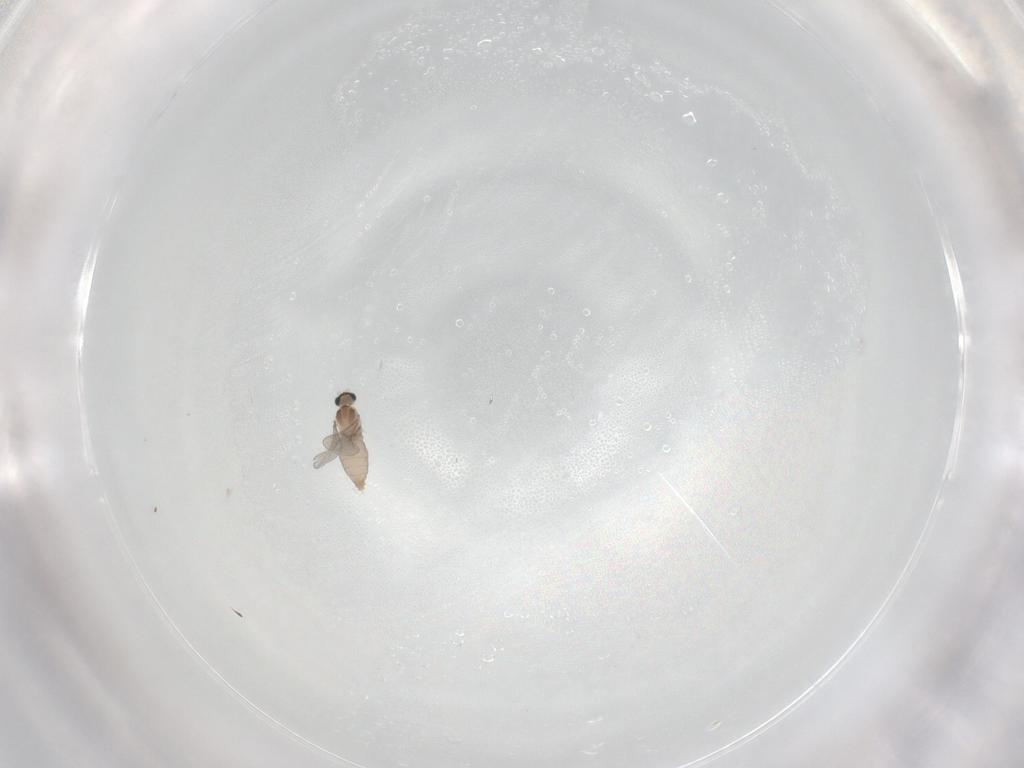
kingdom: Animalia
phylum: Arthropoda
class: Insecta
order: Diptera
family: Cecidomyiidae
